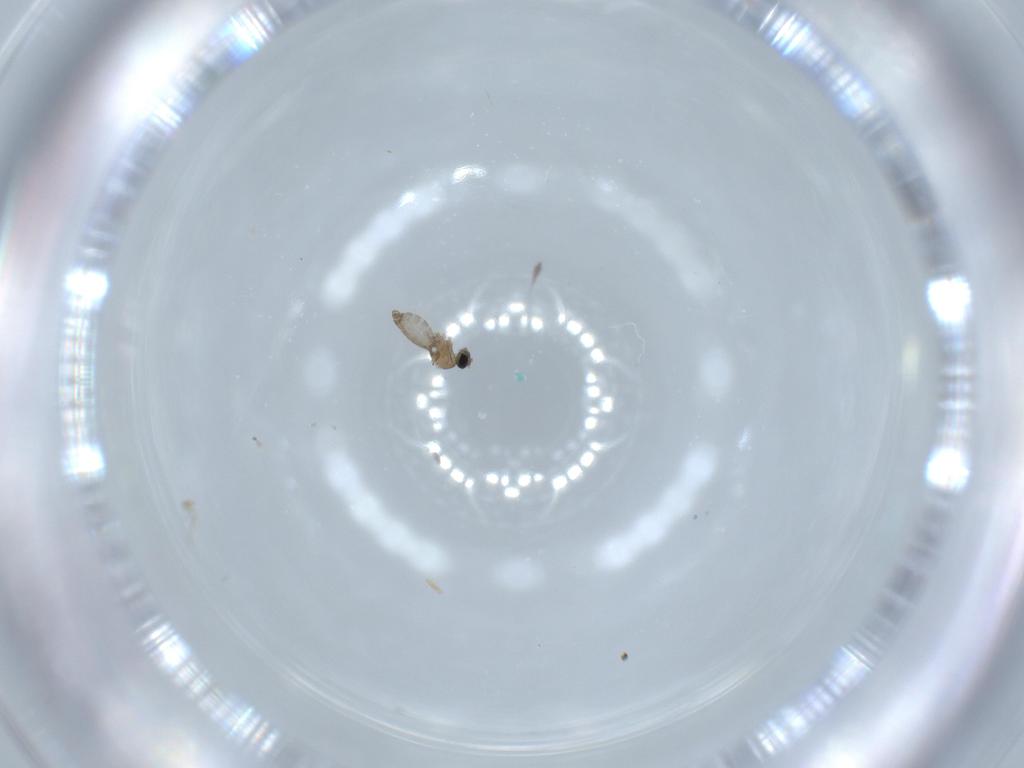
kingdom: Animalia
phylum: Arthropoda
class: Insecta
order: Diptera
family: Cecidomyiidae
